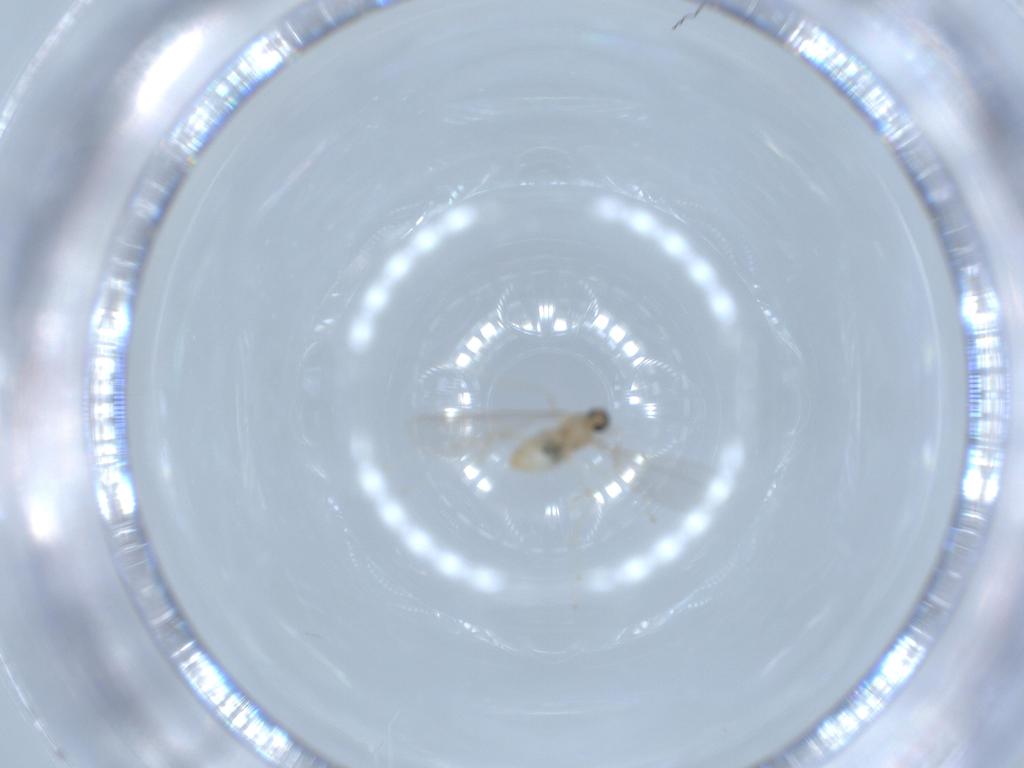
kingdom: Animalia
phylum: Arthropoda
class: Insecta
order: Diptera
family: Cecidomyiidae
